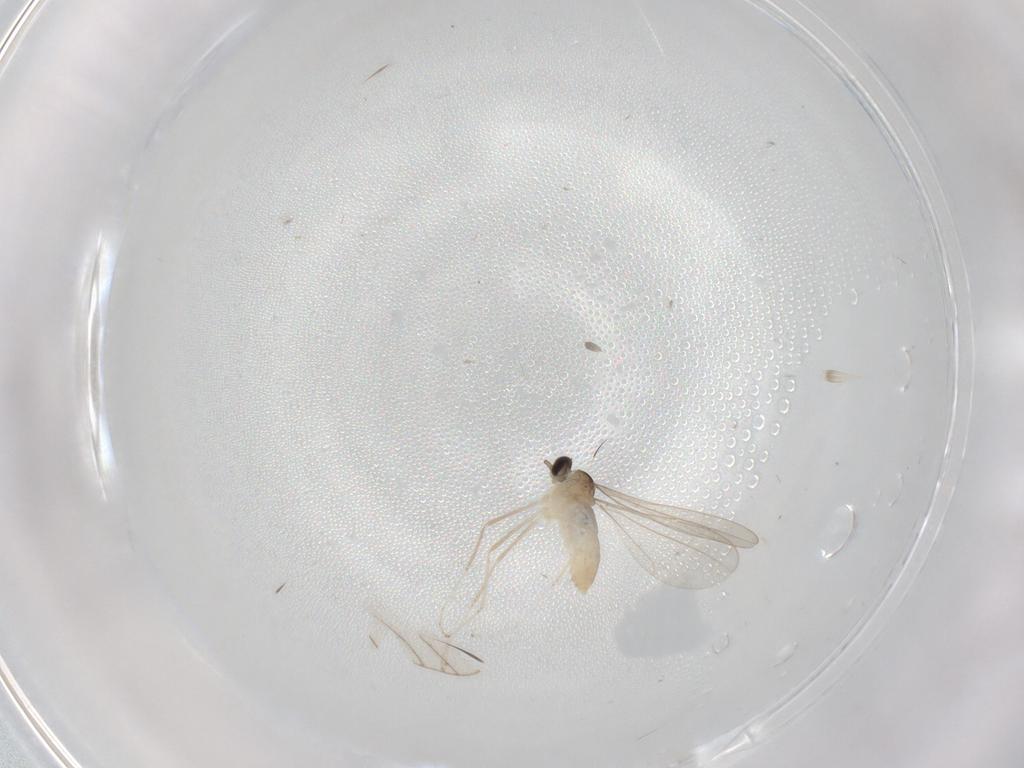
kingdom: Animalia
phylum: Arthropoda
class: Insecta
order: Diptera
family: Cecidomyiidae
